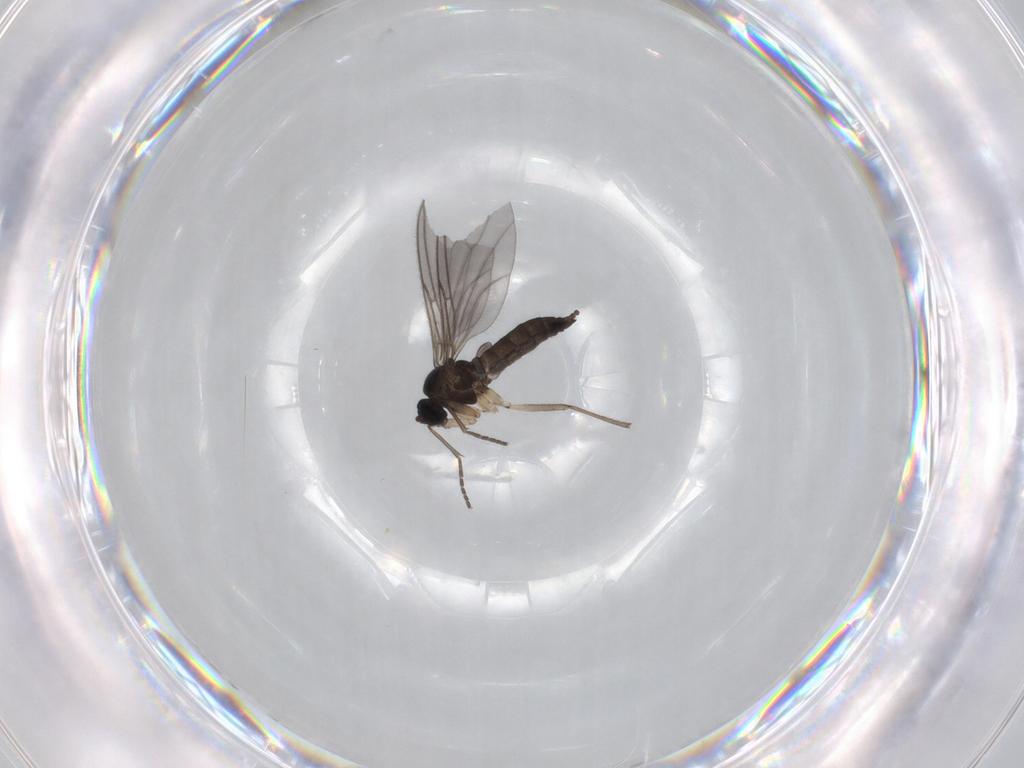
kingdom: Animalia
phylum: Arthropoda
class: Insecta
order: Diptera
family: Sciaridae
